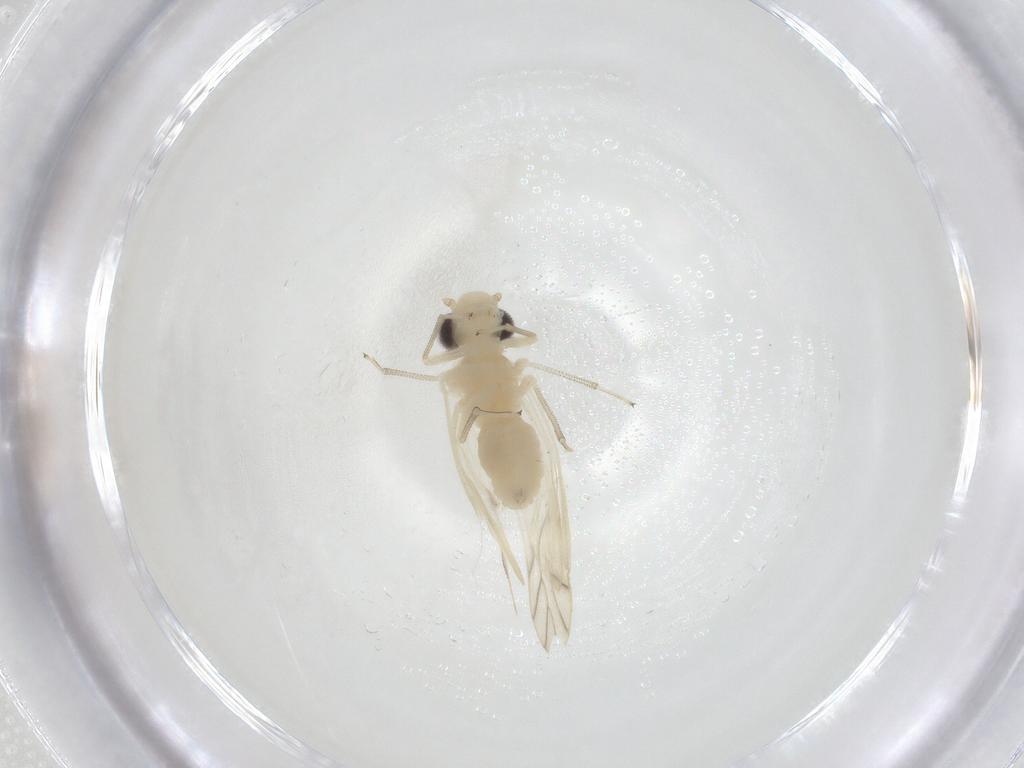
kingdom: Animalia
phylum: Arthropoda
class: Insecta
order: Psocodea
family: Caeciliusidae
